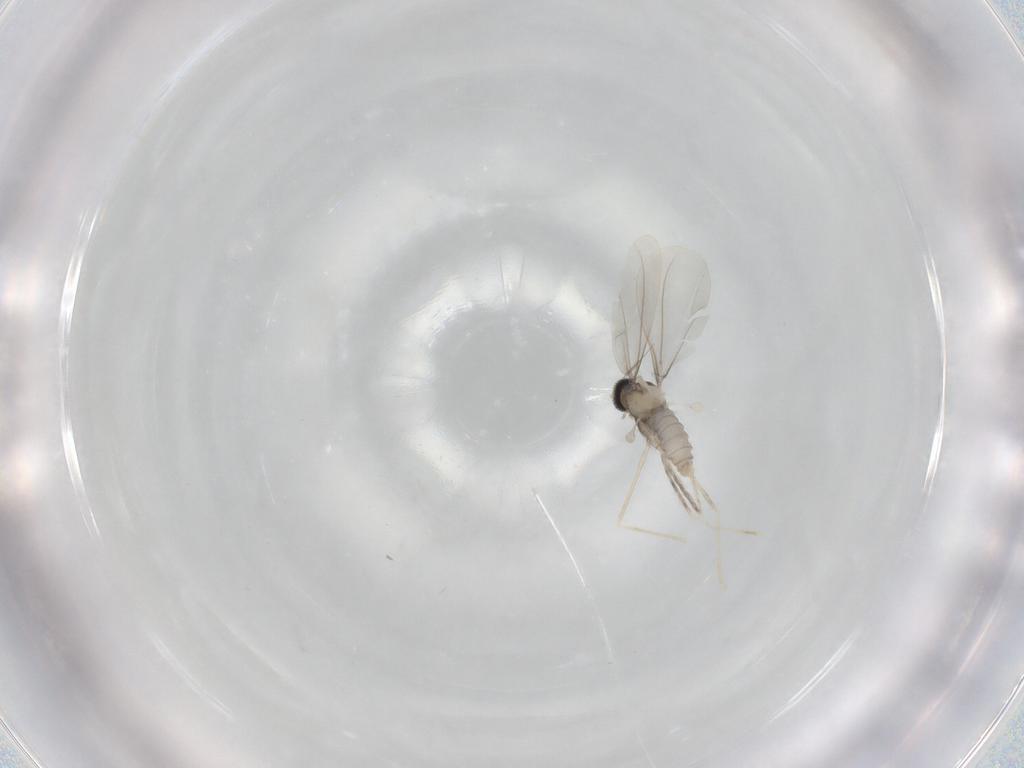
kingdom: Animalia
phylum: Arthropoda
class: Insecta
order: Diptera
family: Cecidomyiidae
